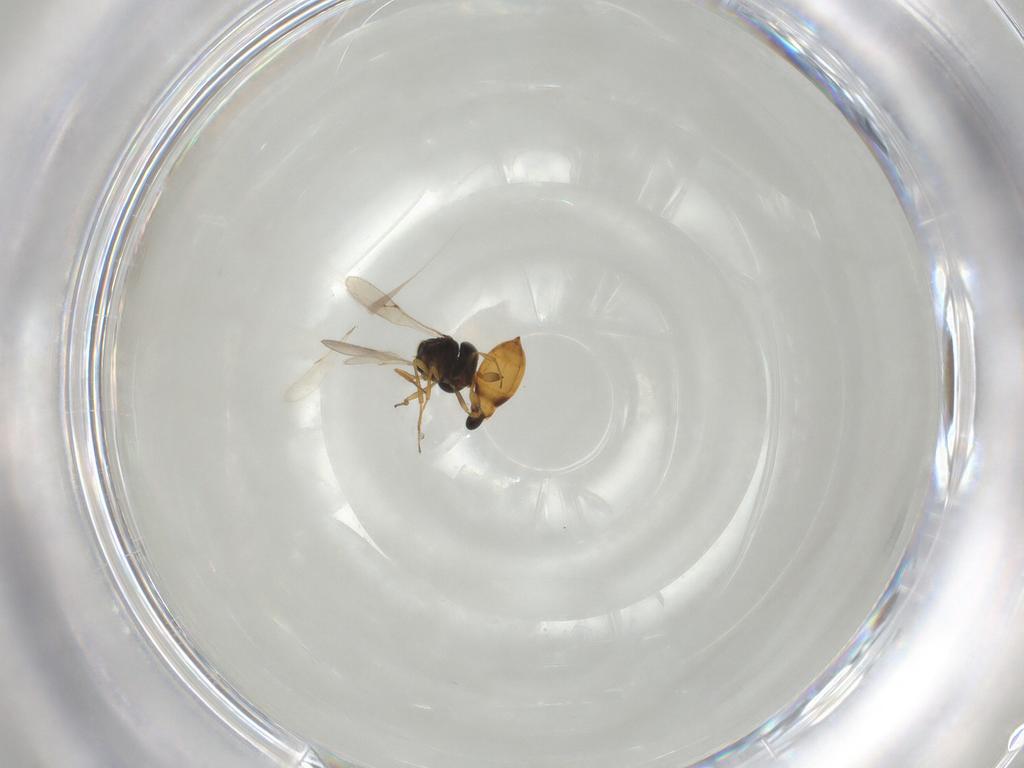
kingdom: Animalia
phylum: Arthropoda
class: Insecta
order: Hymenoptera
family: Scelionidae
